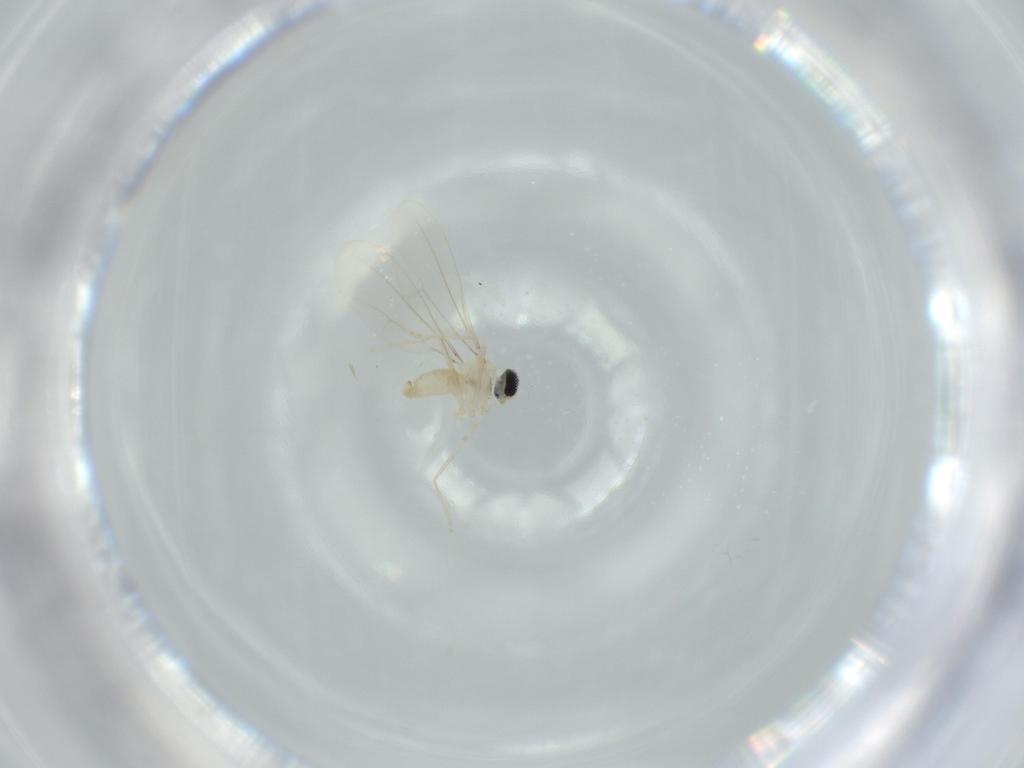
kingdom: Animalia
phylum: Arthropoda
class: Insecta
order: Diptera
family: Cecidomyiidae
